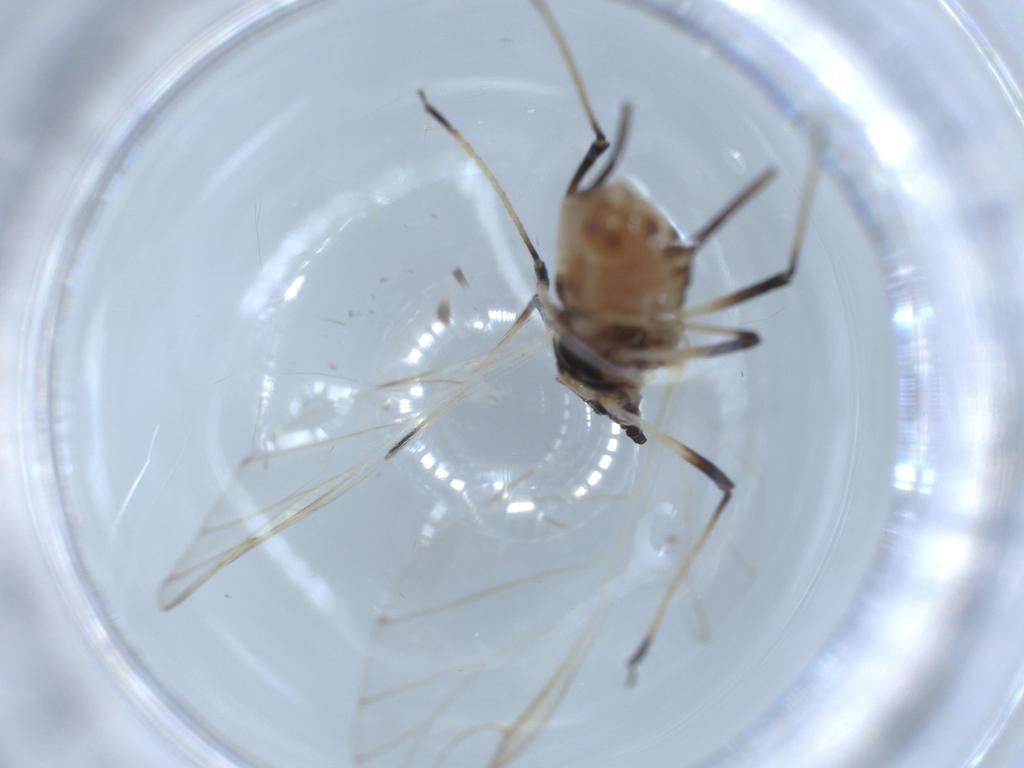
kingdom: Animalia
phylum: Arthropoda
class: Insecta
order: Hemiptera
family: Aphididae
